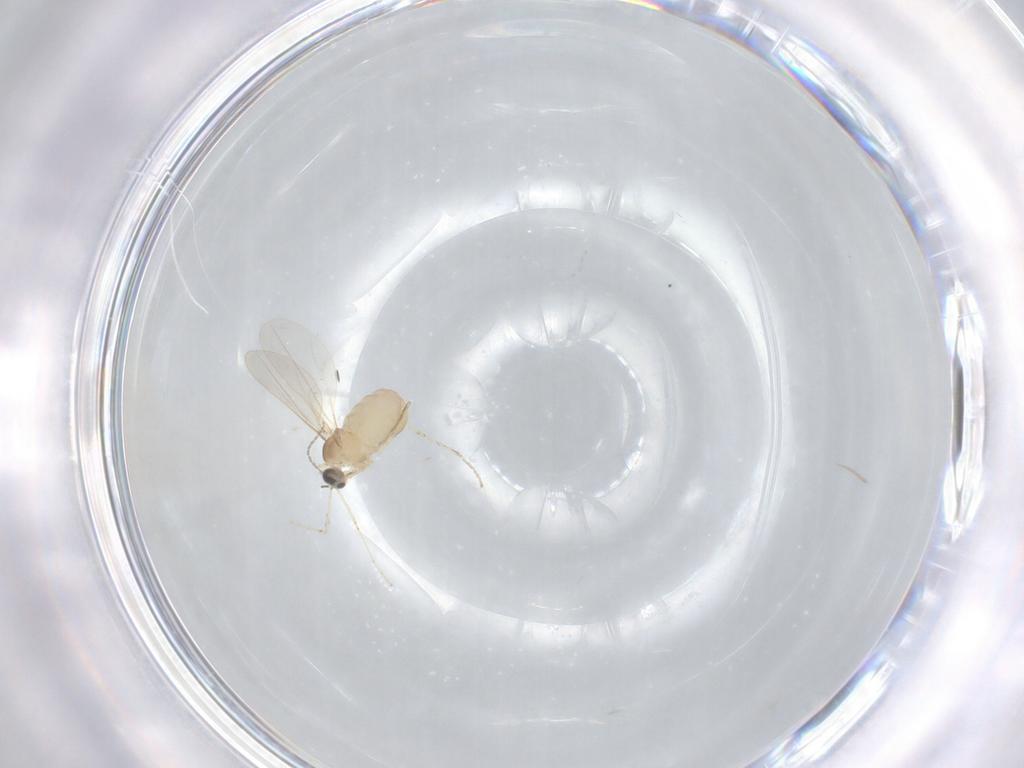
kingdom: Animalia
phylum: Arthropoda
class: Insecta
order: Diptera
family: Cecidomyiidae
